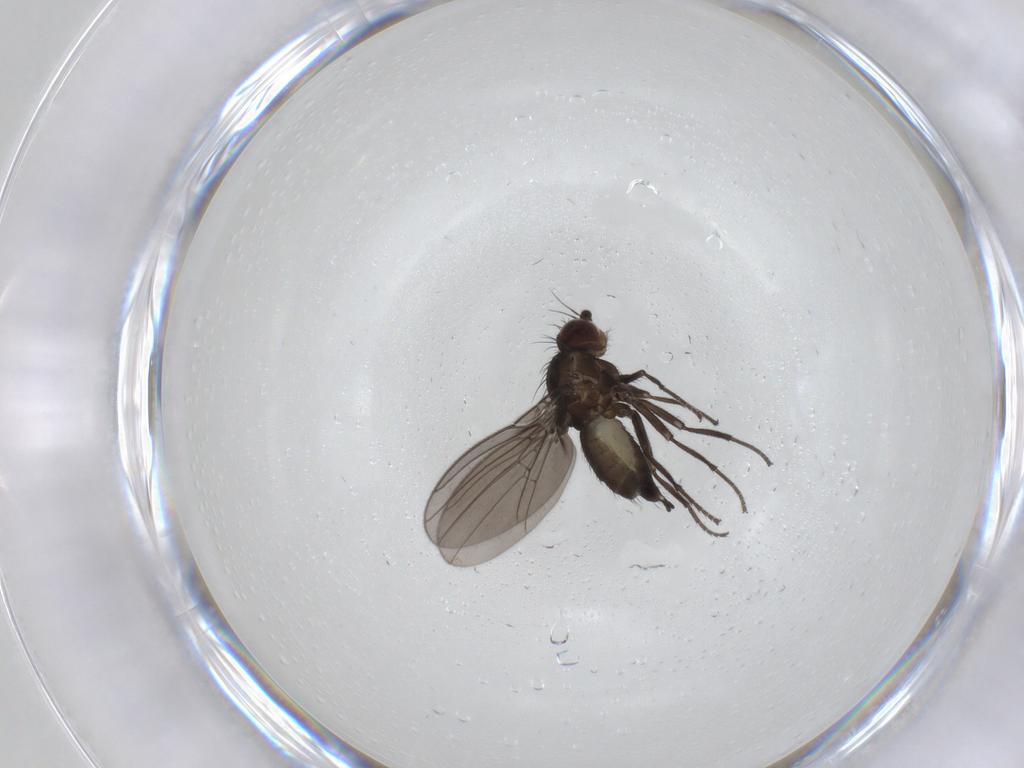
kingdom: Animalia
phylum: Arthropoda
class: Insecta
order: Diptera
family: Agromyzidae
